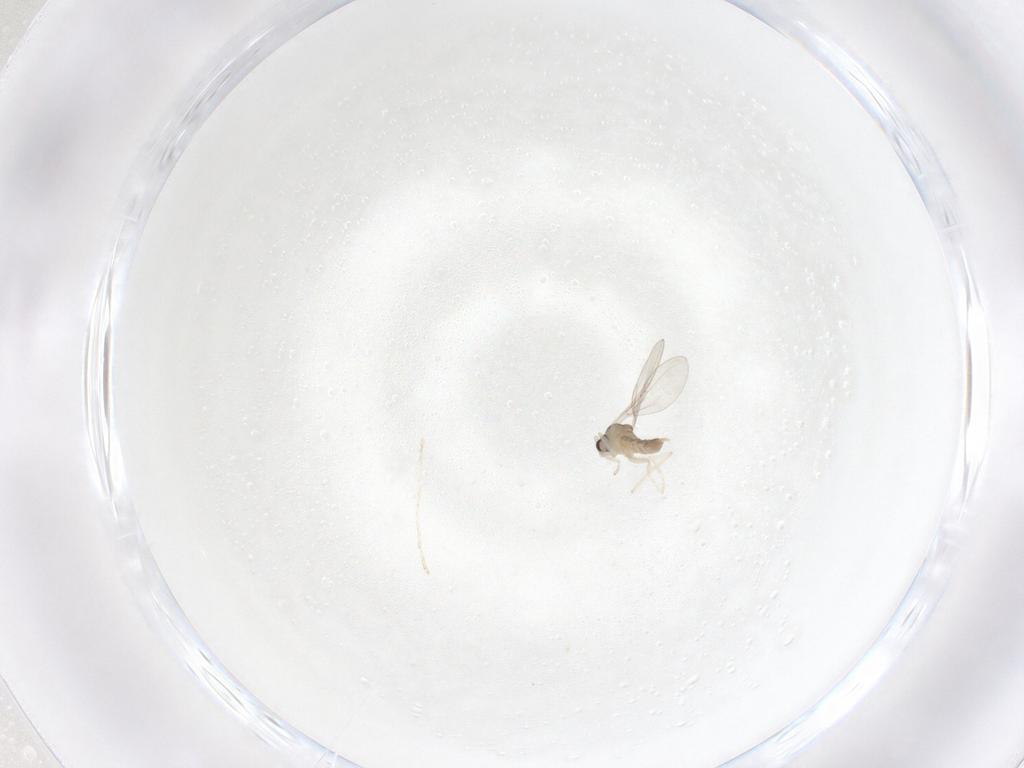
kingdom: Animalia
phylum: Arthropoda
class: Insecta
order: Diptera
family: Cecidomyiidae
